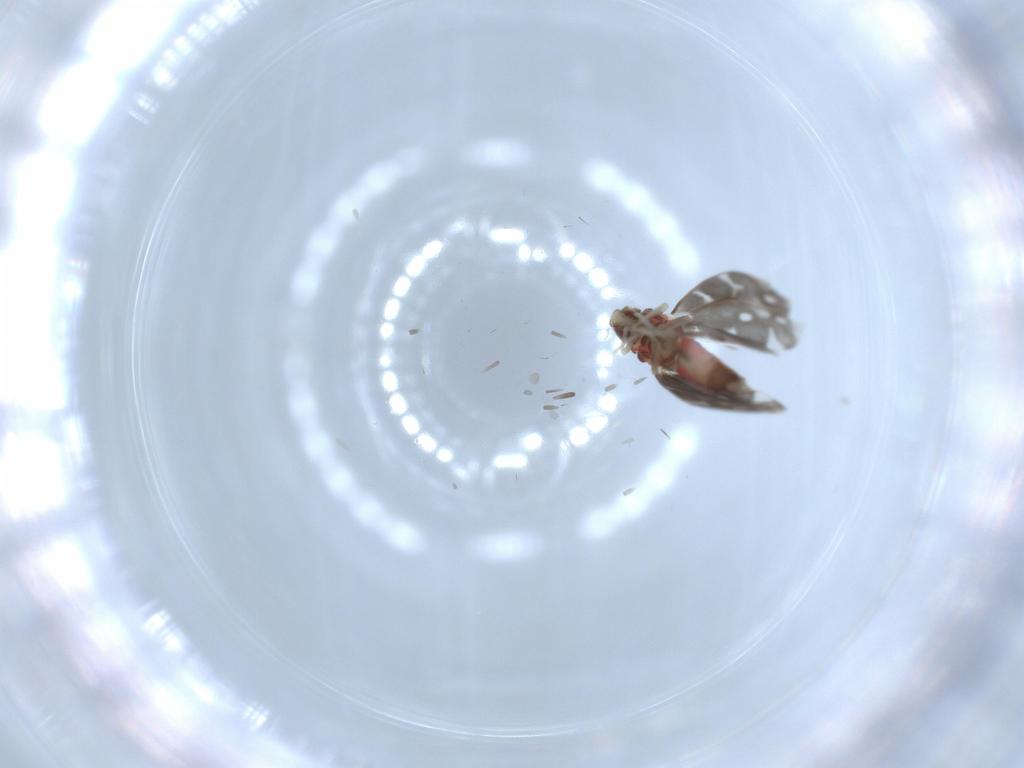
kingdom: Animalia
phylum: Arthropoda
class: Insecta
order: Hemiptera
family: Aleyrodidae
